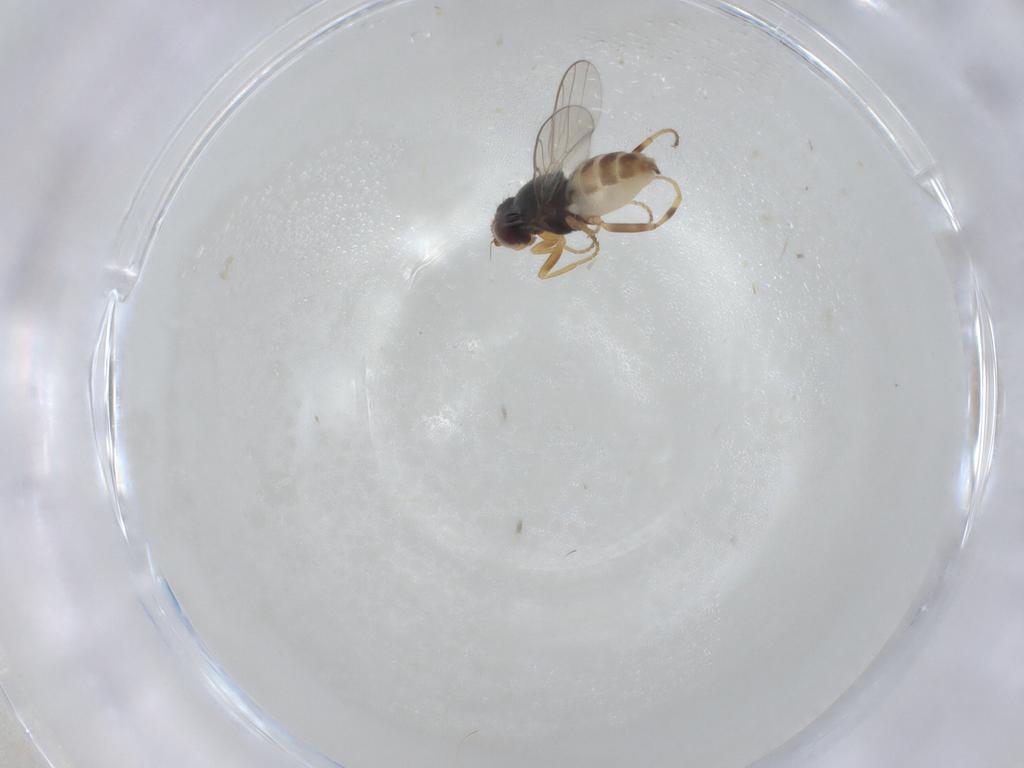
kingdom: Animalia
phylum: Arthropoda
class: Insecta
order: Diptera
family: Chloropidae
